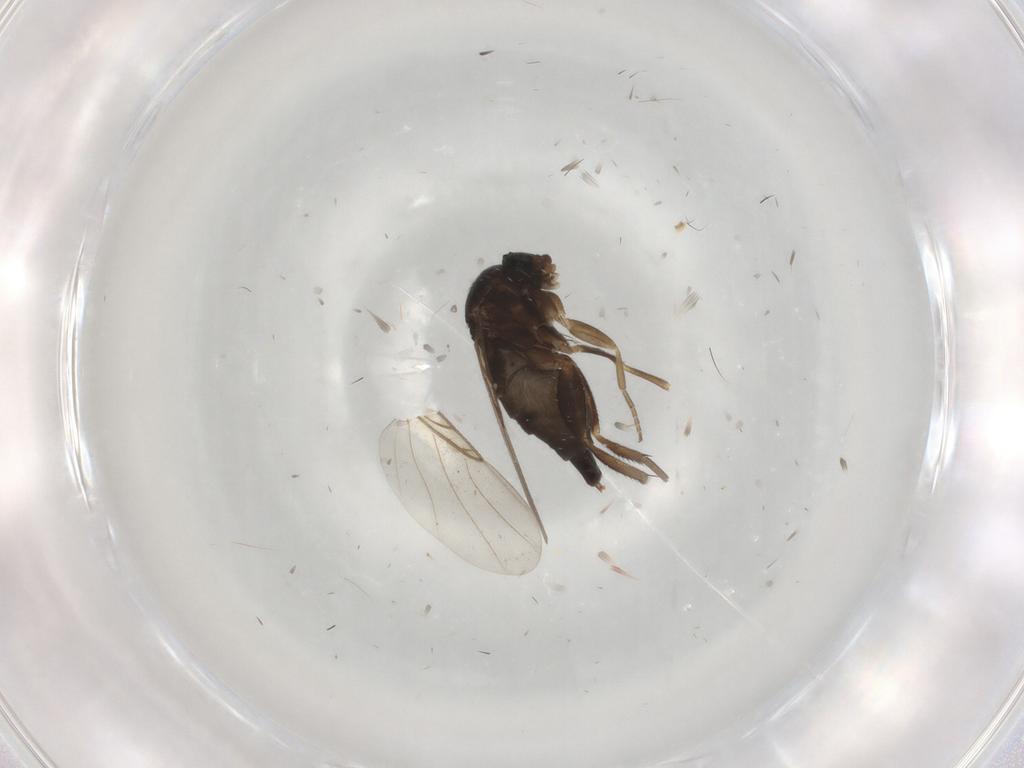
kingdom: Animalia
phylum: Arthropoda
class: Insecta
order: Diptera
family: Phoridae
